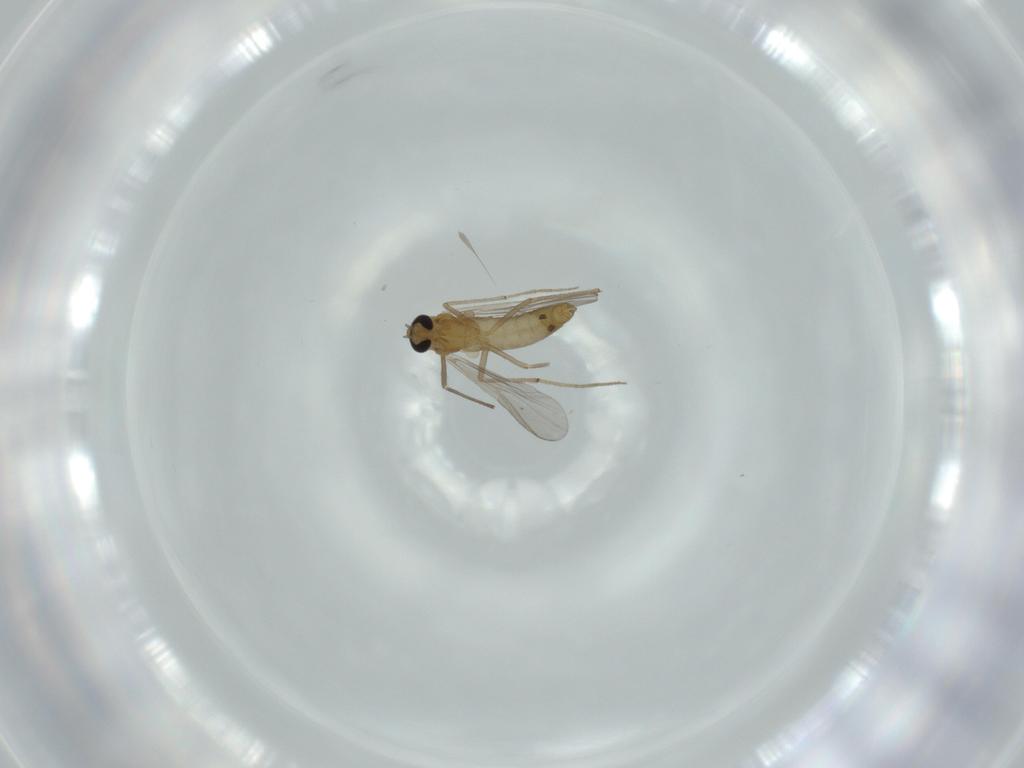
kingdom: Animalia
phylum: Arthropoda
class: Insecta
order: Diptera
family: Chironomidae
